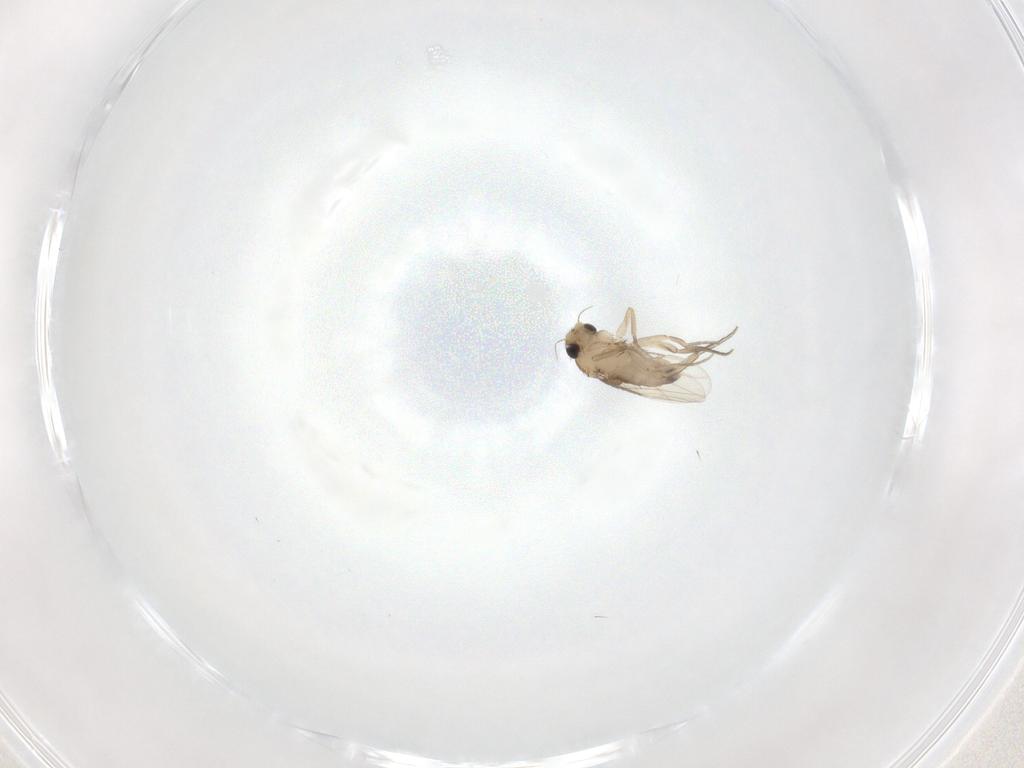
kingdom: Animalia
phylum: Arthropoda
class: Insecta
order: Diptera
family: Phoridae
